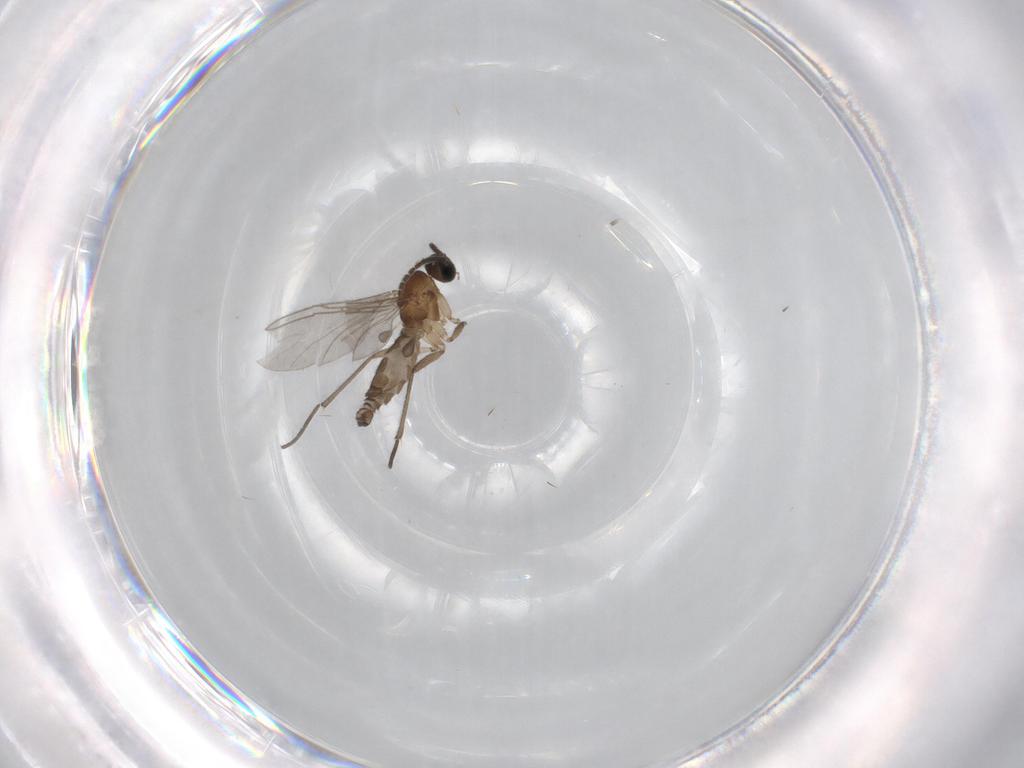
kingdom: Animalia
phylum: Arthropoda
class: Insecta
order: Diptera
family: Sciaridae
